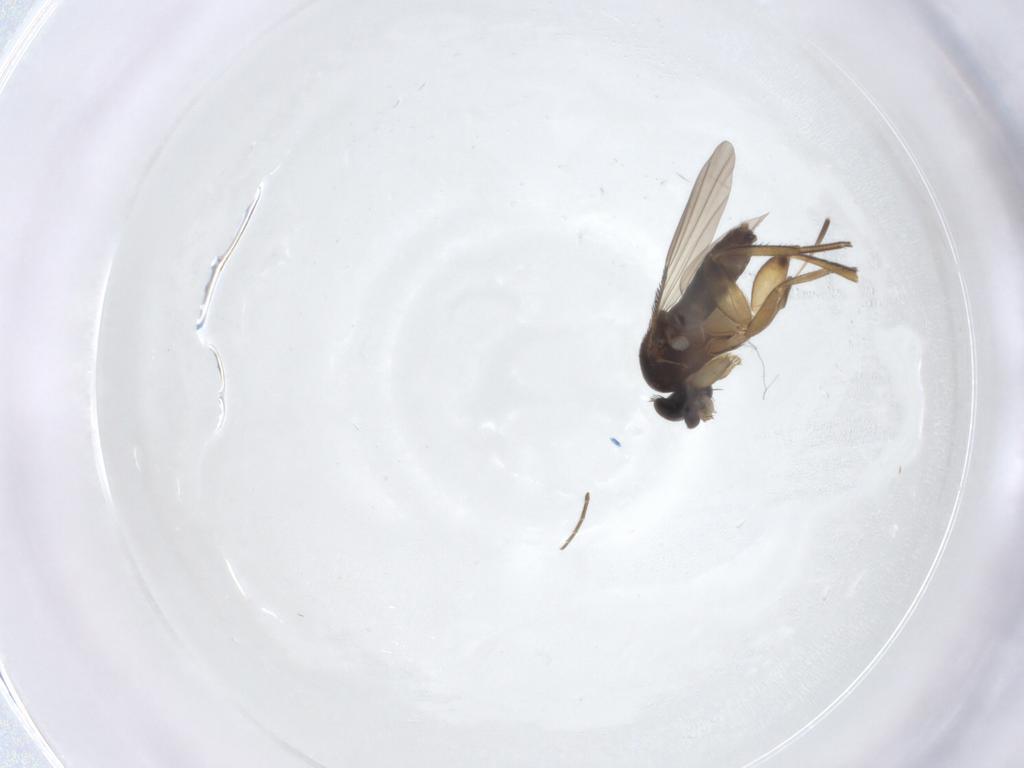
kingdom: Animalia
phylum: Arthropoda
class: Insecta
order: Diptera
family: Phoridae
